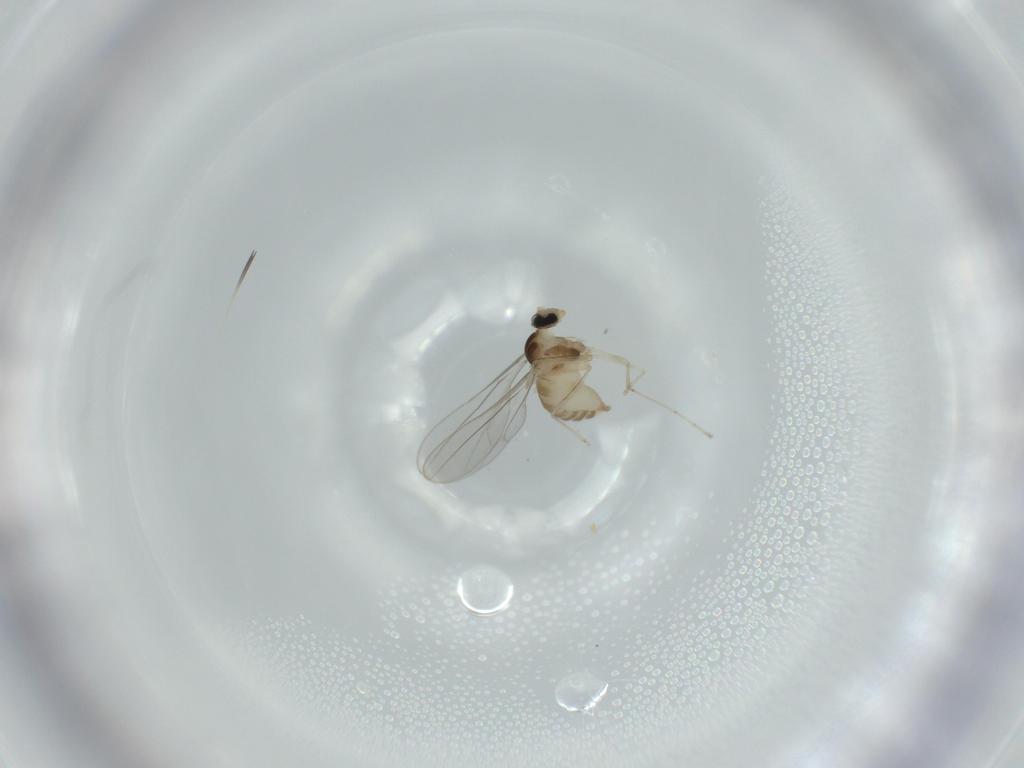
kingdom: Animalia
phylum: Arthropoda
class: Insecta
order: Diptera
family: Cecidomyiidae
